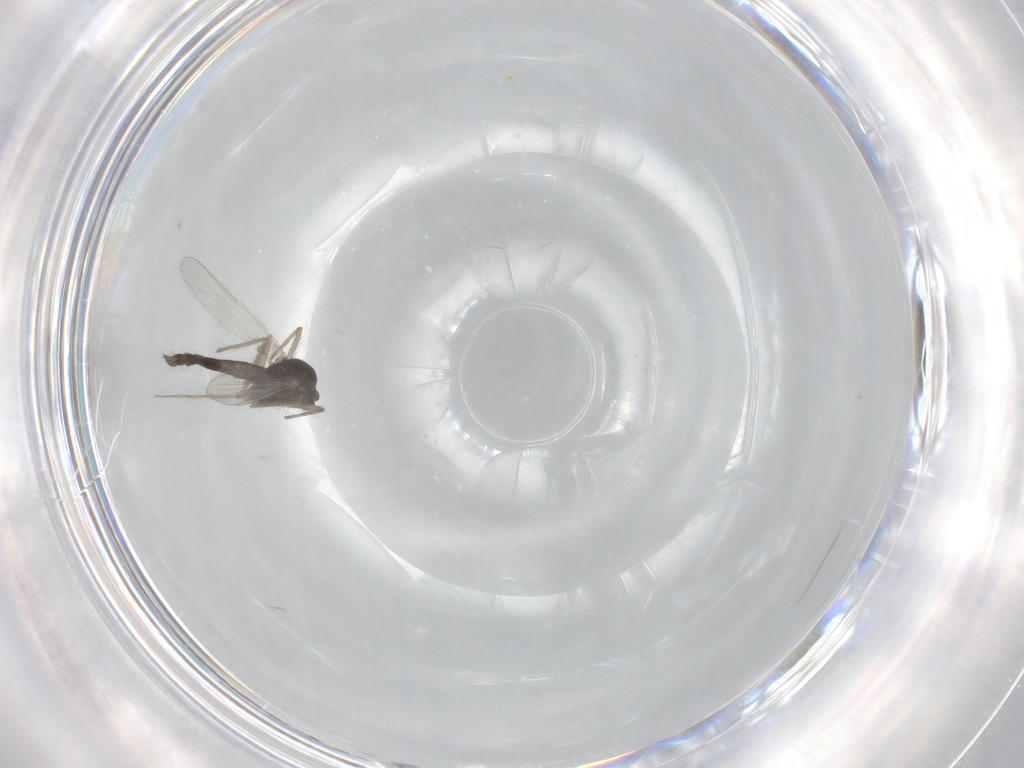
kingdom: Animalia
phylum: Arthropoda
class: Insecta
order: Diptera
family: Chironomidae
